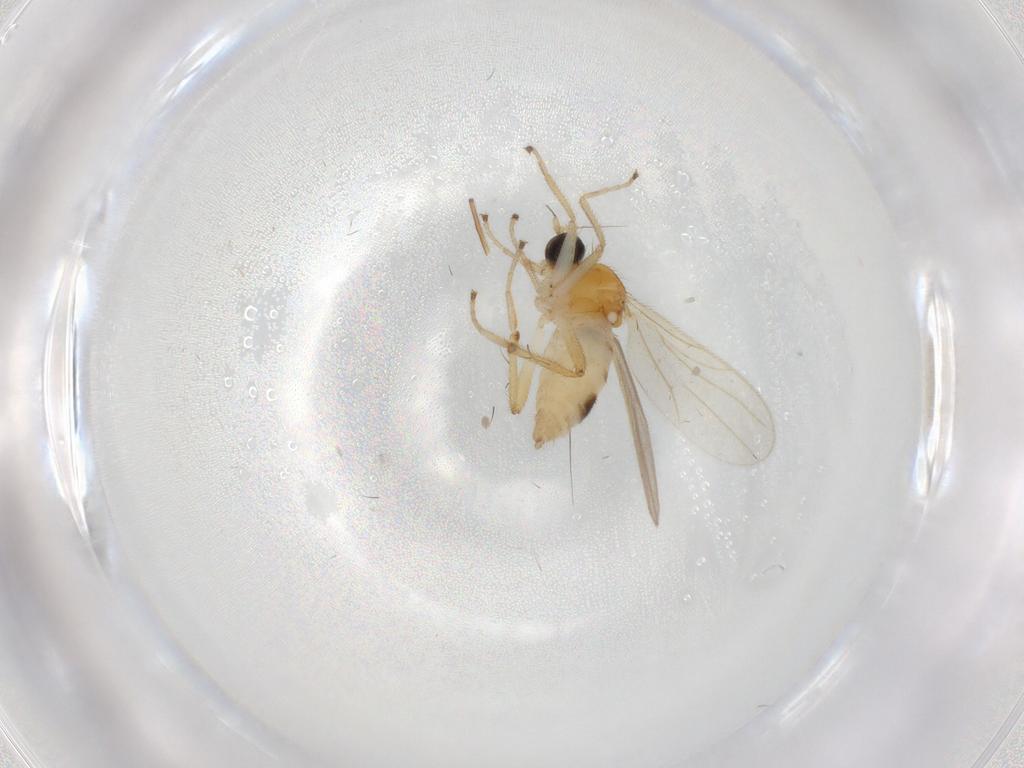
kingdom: Animalia
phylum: Arthropoda
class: Insecta
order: Diptera
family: Hybotidae
